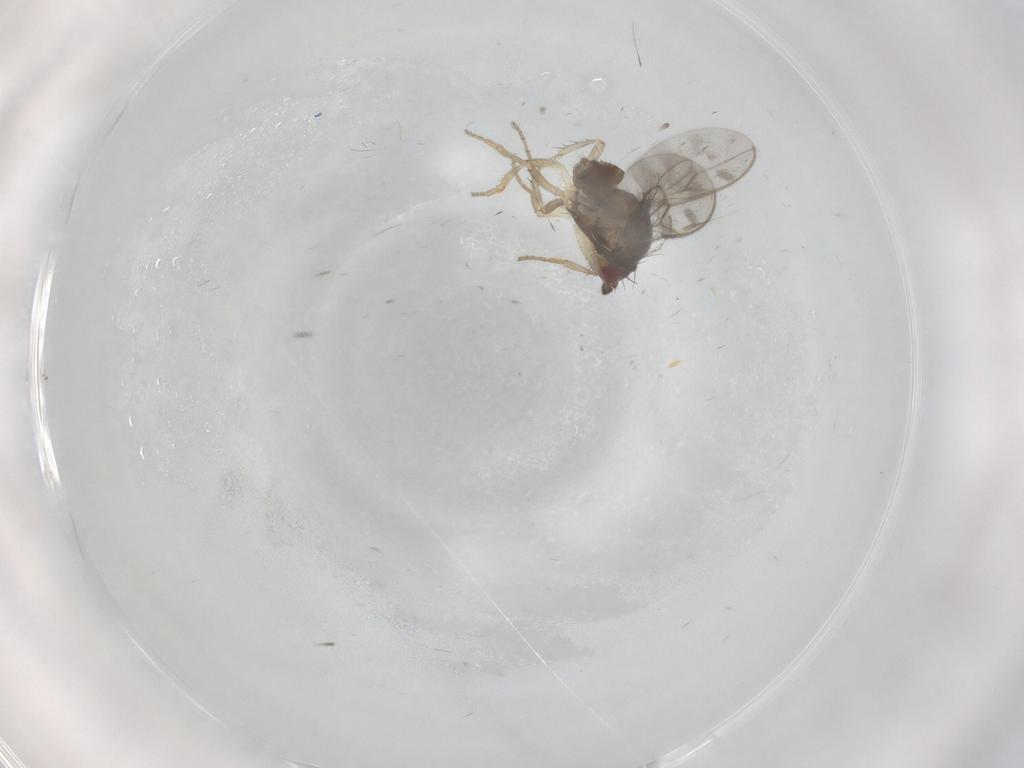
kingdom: Animalia
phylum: Arthropoda
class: Insecta
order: Diptera
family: Sphaeroceridae
